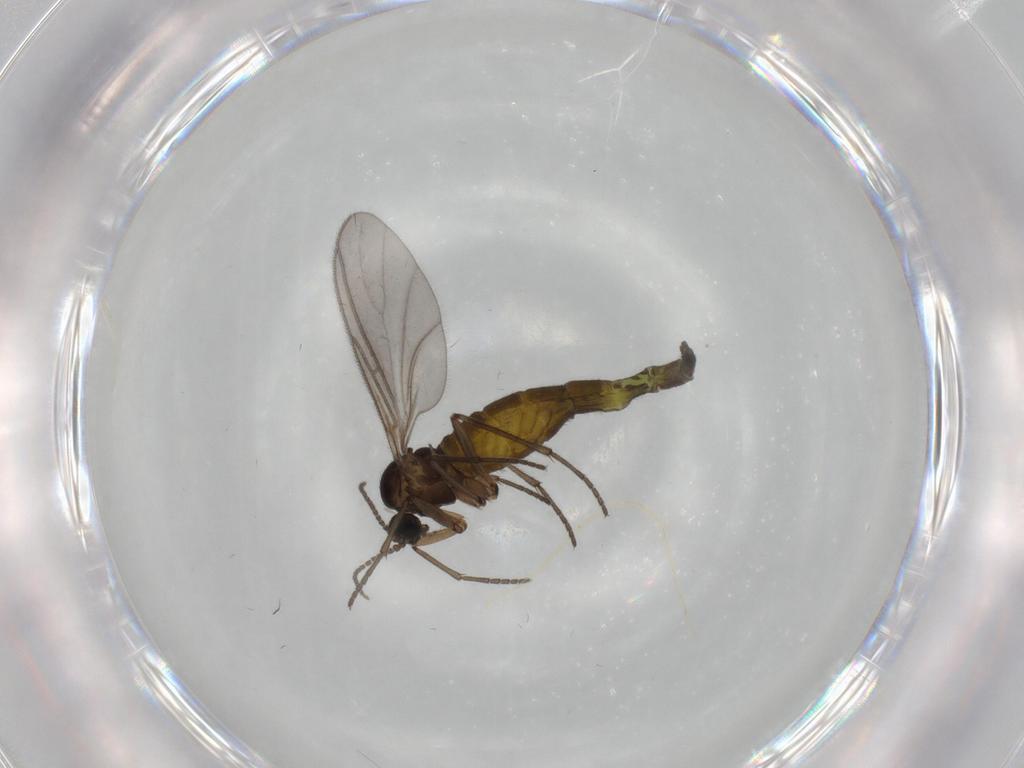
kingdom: Animalia
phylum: Arthropoda
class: Insecta
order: Diptera
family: Sciaridae
